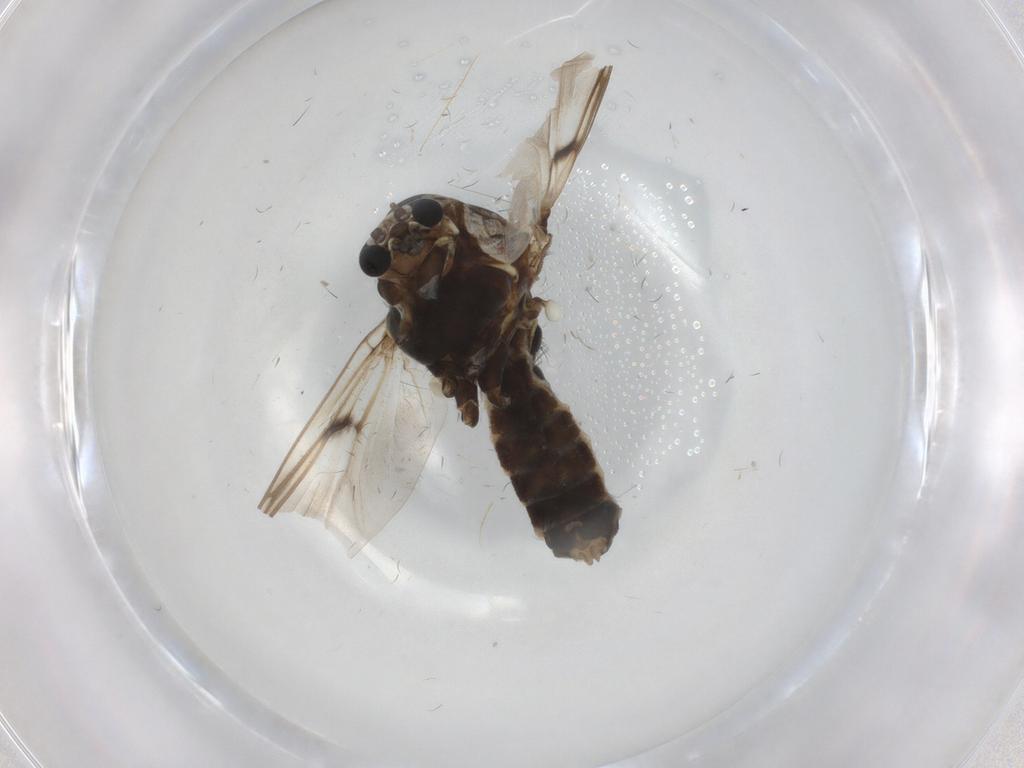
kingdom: Animalia
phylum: Arthropoda
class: Insecta
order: Diptera
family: Chironomidae
